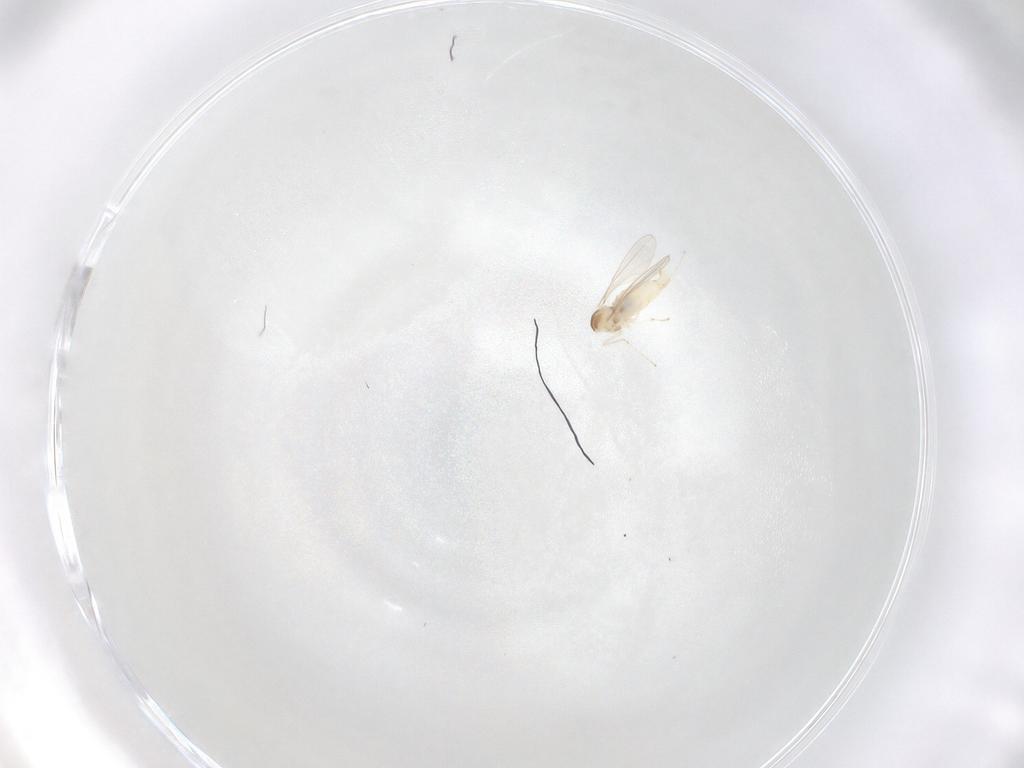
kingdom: Animalia
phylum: Arthropoda
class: Insecta
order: Diptera
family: Cecidomyiidae
